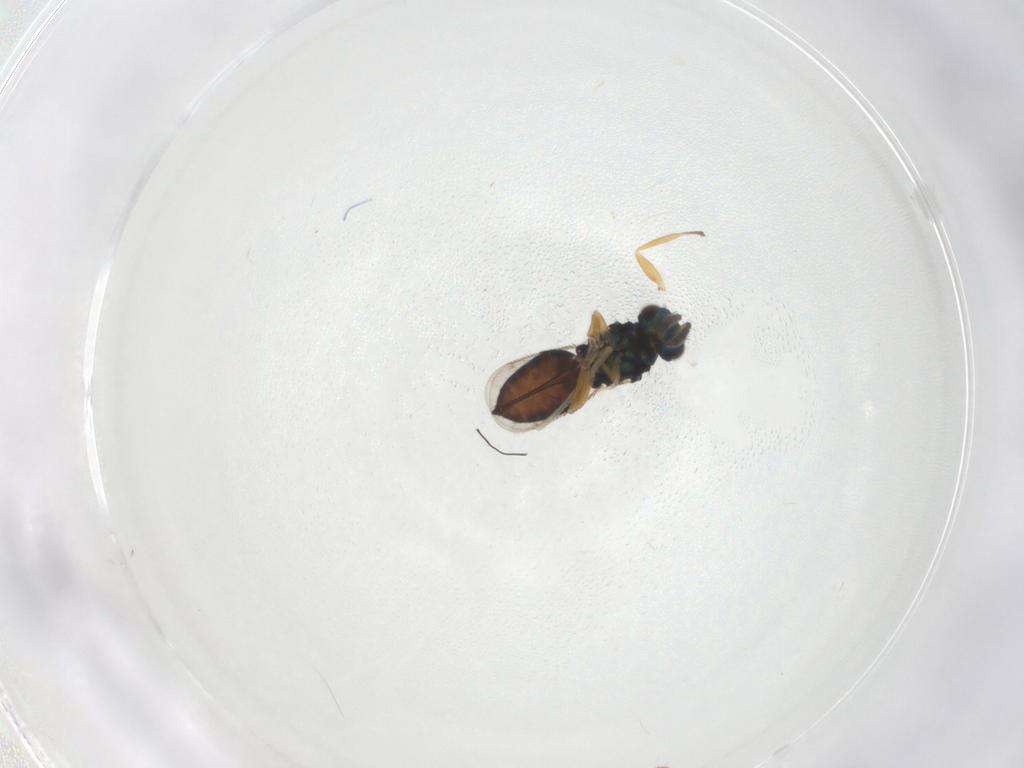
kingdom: Animalia
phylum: Arthropoda
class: Insecta
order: Hymenoptera
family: Eulophidae
